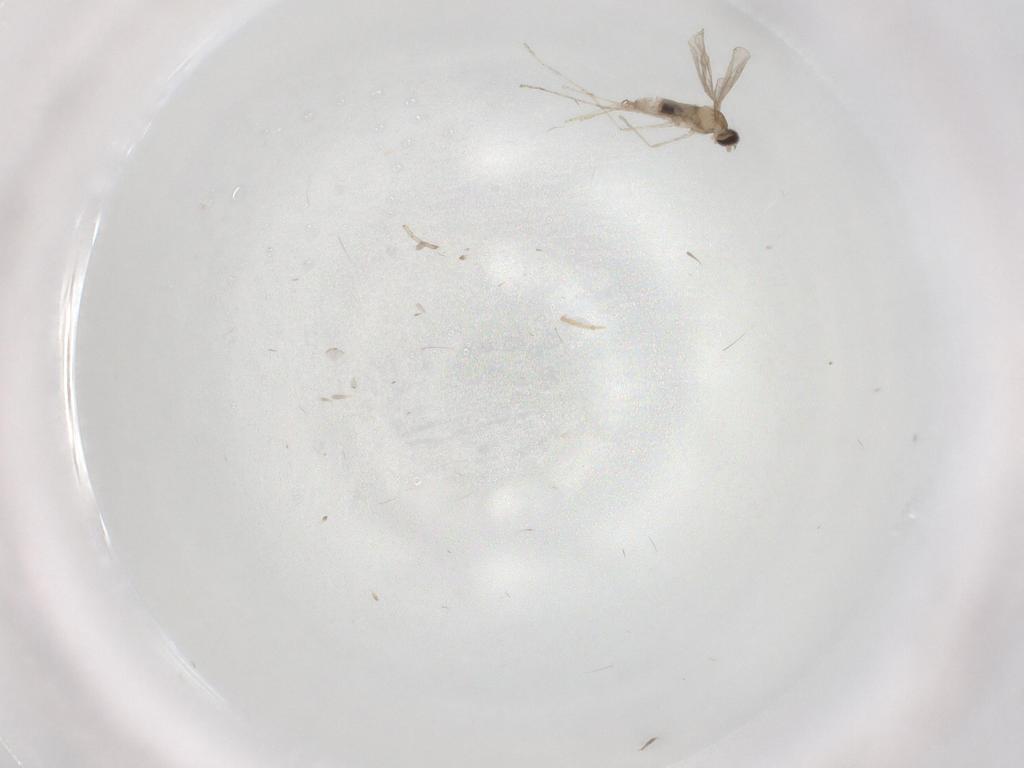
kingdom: Animalia
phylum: Arthropoda
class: Insecta
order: Diptera
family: Cecidomyiidae
